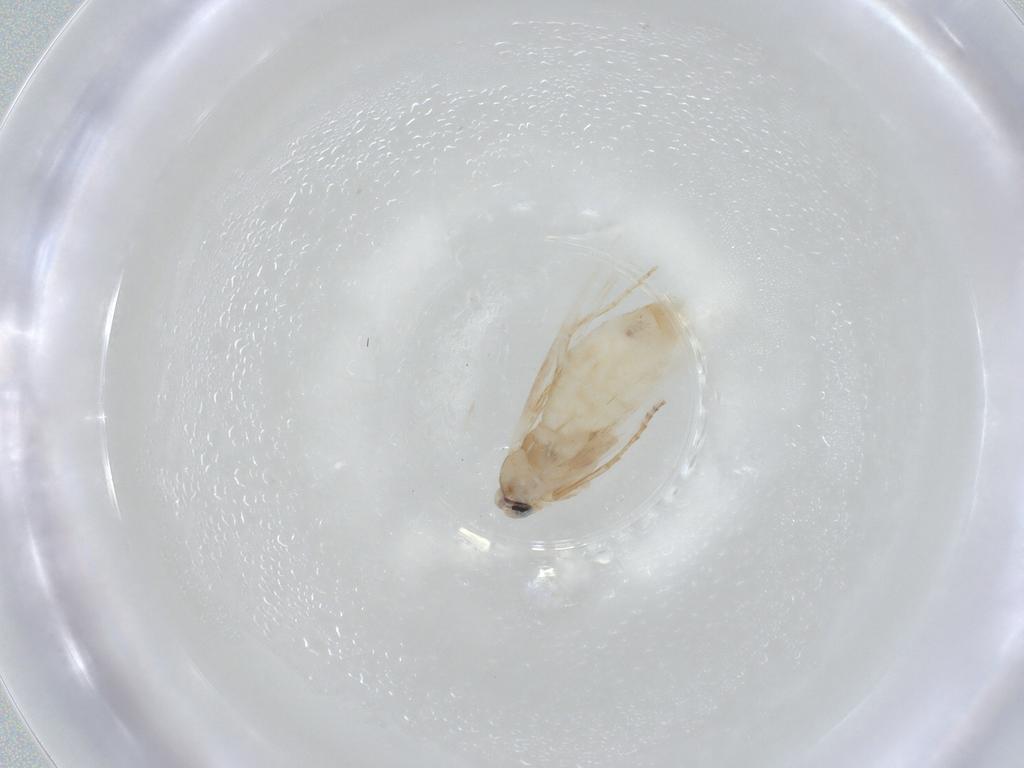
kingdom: Animalia
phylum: Arthropoda
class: Insecta
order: Lepidoptera
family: Bucculatricidae
